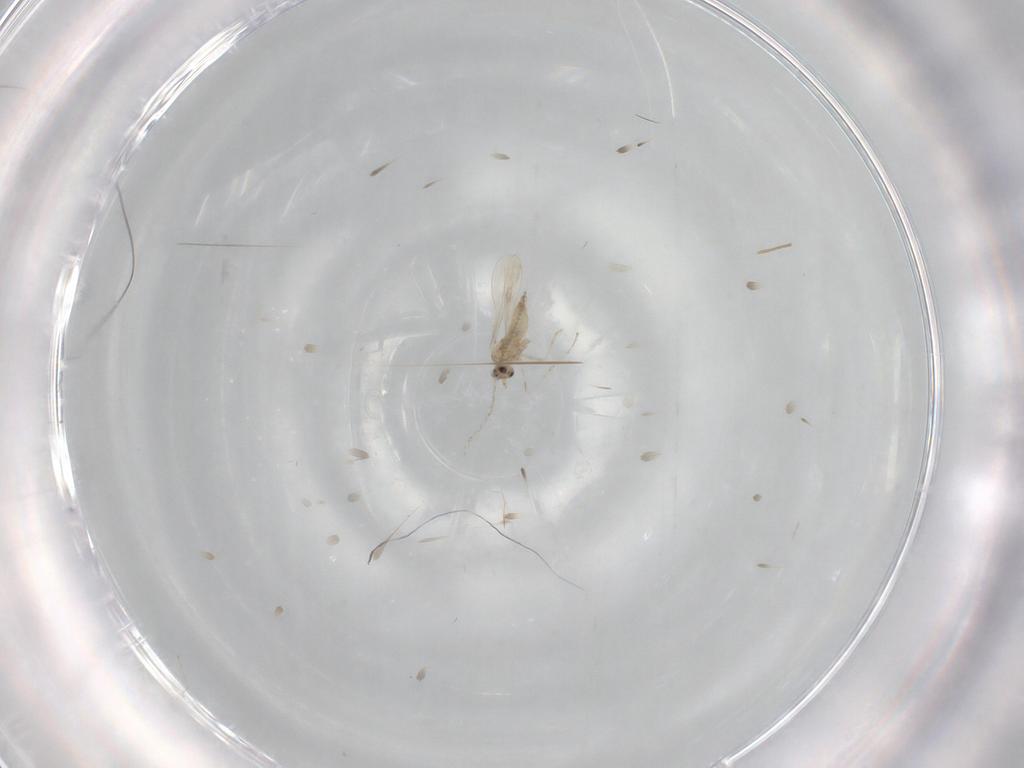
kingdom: Animalia
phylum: Arthropoda
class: Insecta
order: Diptera
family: Cecidomyiidae
